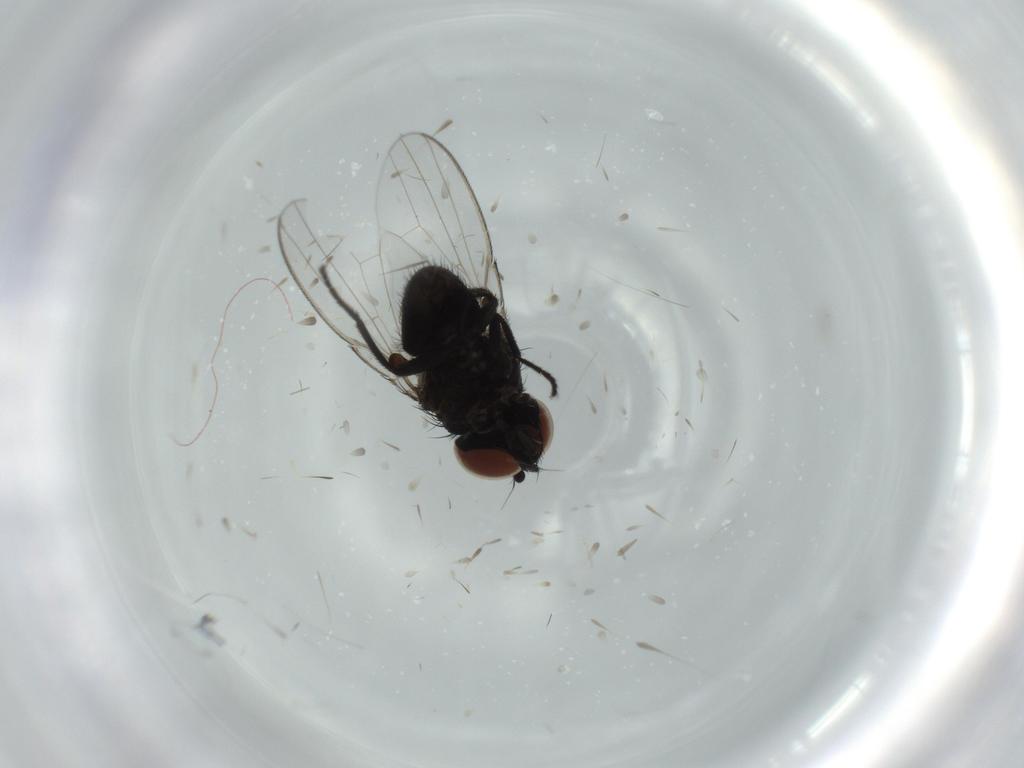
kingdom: Animalia
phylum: Arthropoda
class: Insecta
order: Diptera
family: Milichiidae
